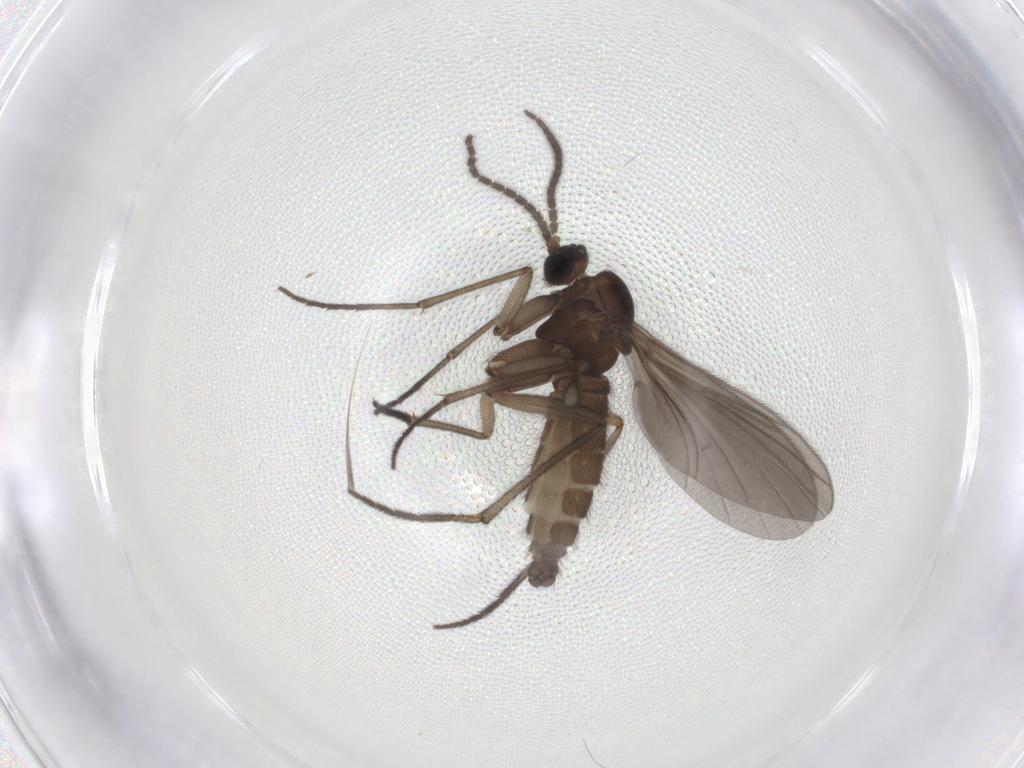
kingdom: Animalia
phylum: Arthropoda
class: Insecta
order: Diptera
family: Sciaridae
